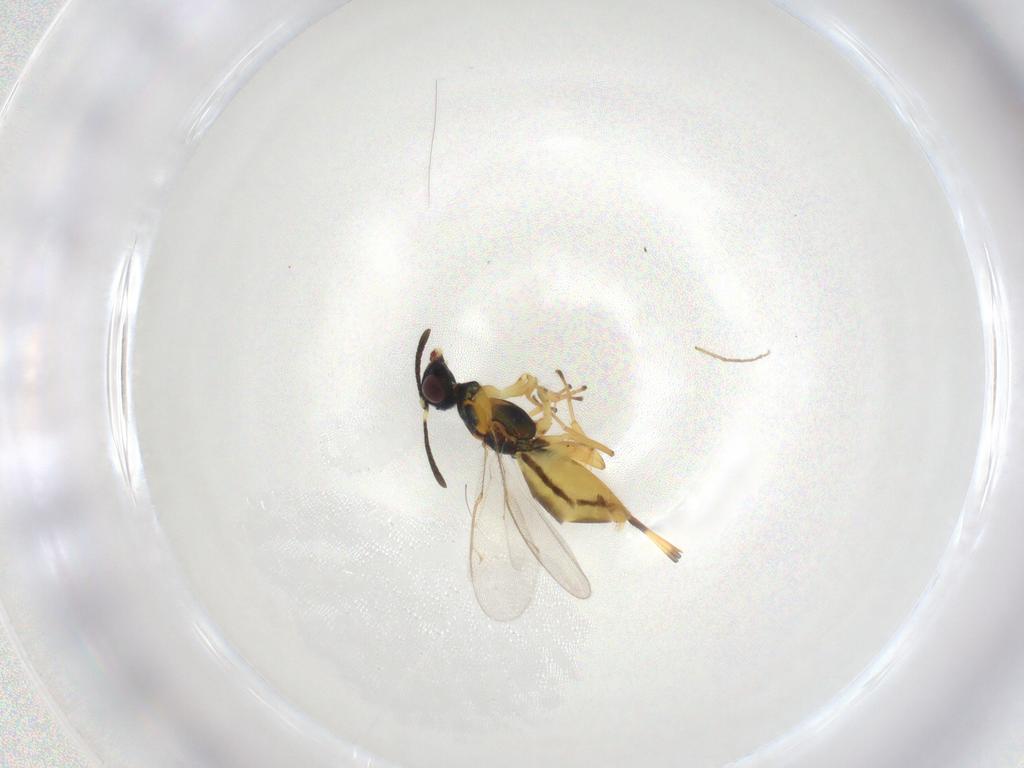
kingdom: Animalia
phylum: Arthropoda
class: Insecta
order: Hymenoptera
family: Eupelmidae
